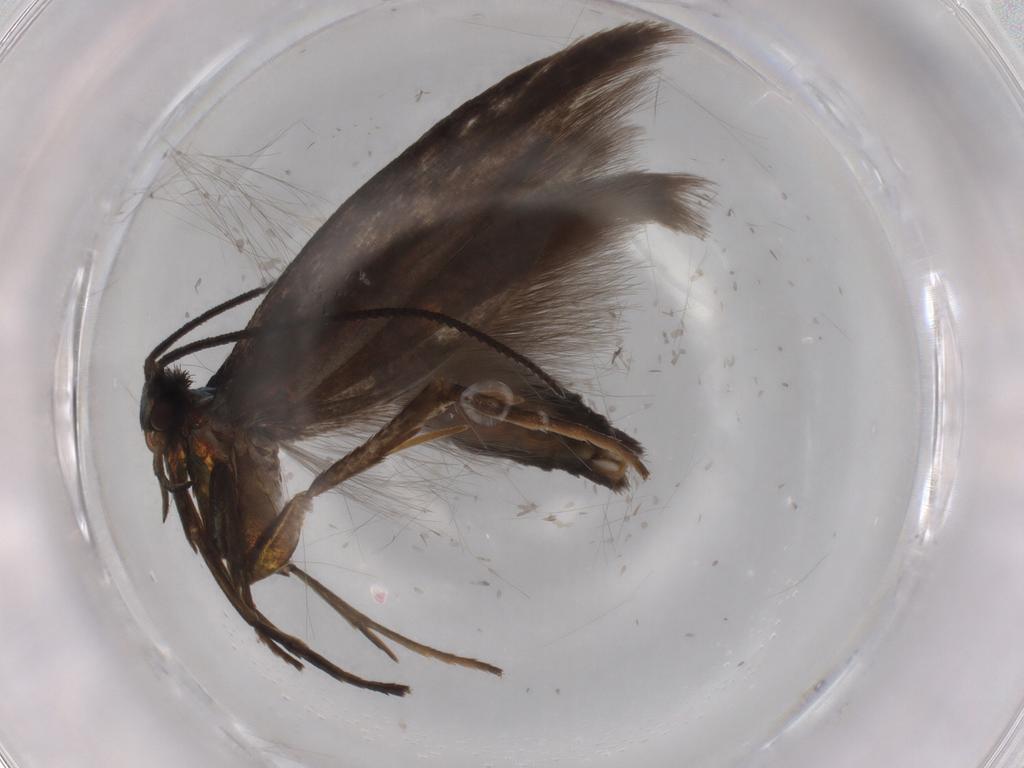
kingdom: Animalia
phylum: Arthropoda
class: Insecta
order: Lepidoptera
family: Argyresthiidae
